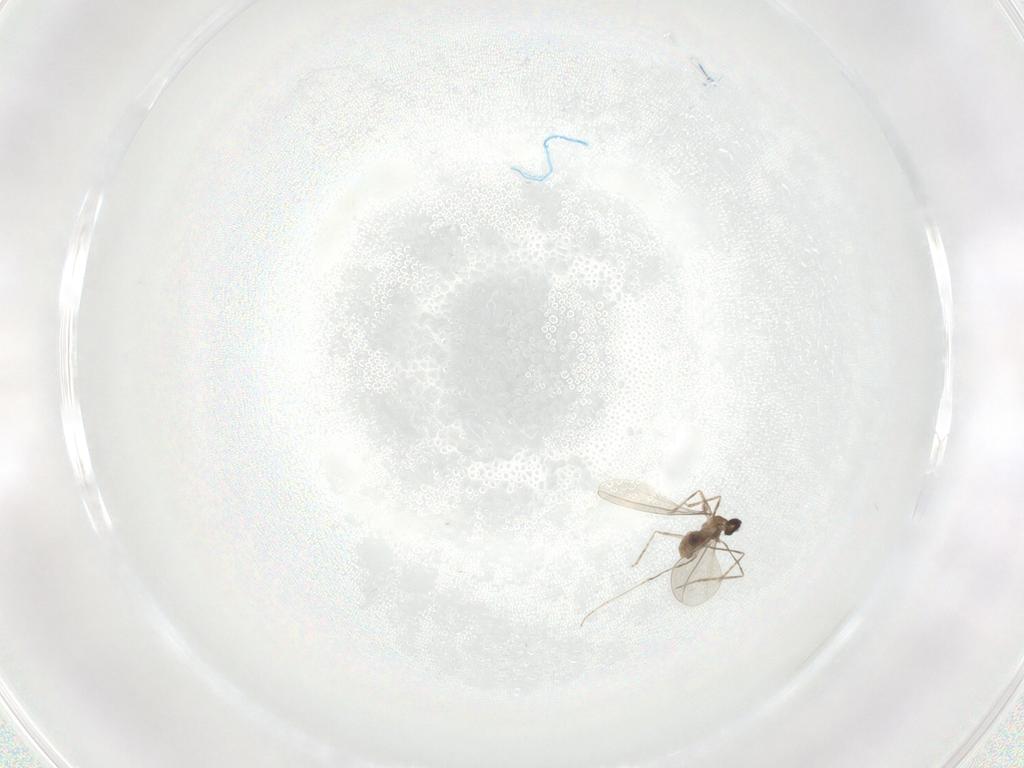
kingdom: Animalia
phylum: Arthropoda
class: Insecta
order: Diptera
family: Cecidomyiidae
